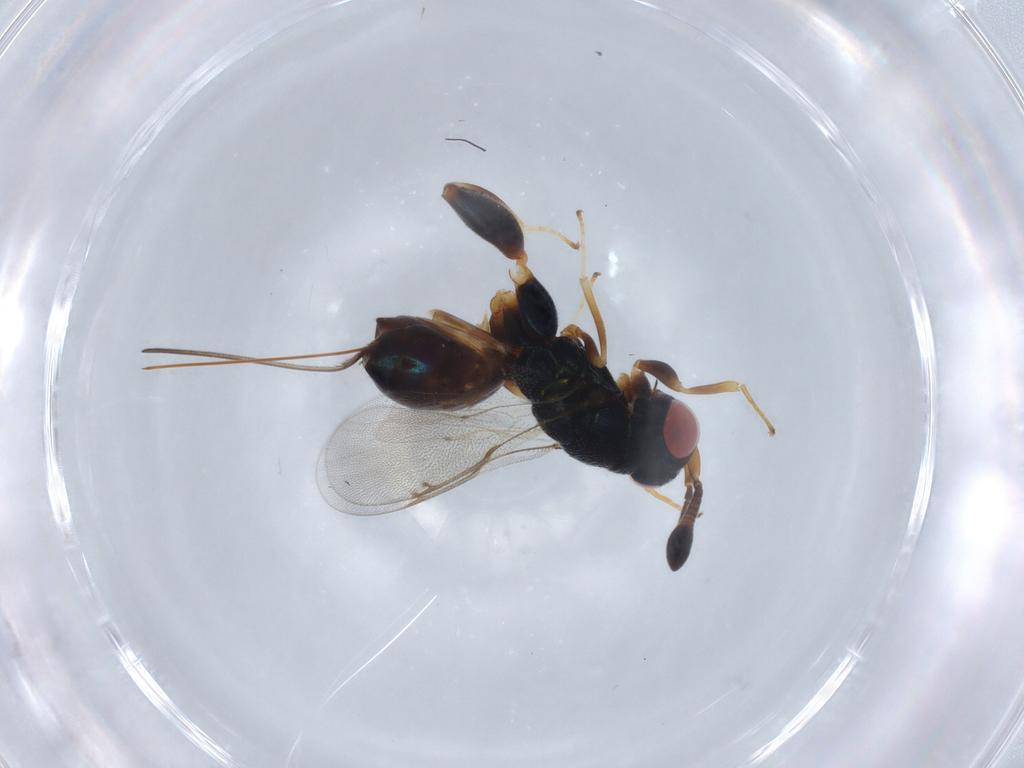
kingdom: Animalia
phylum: Arthropoda
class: Insecta
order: Hymenoptera
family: Torymidae
